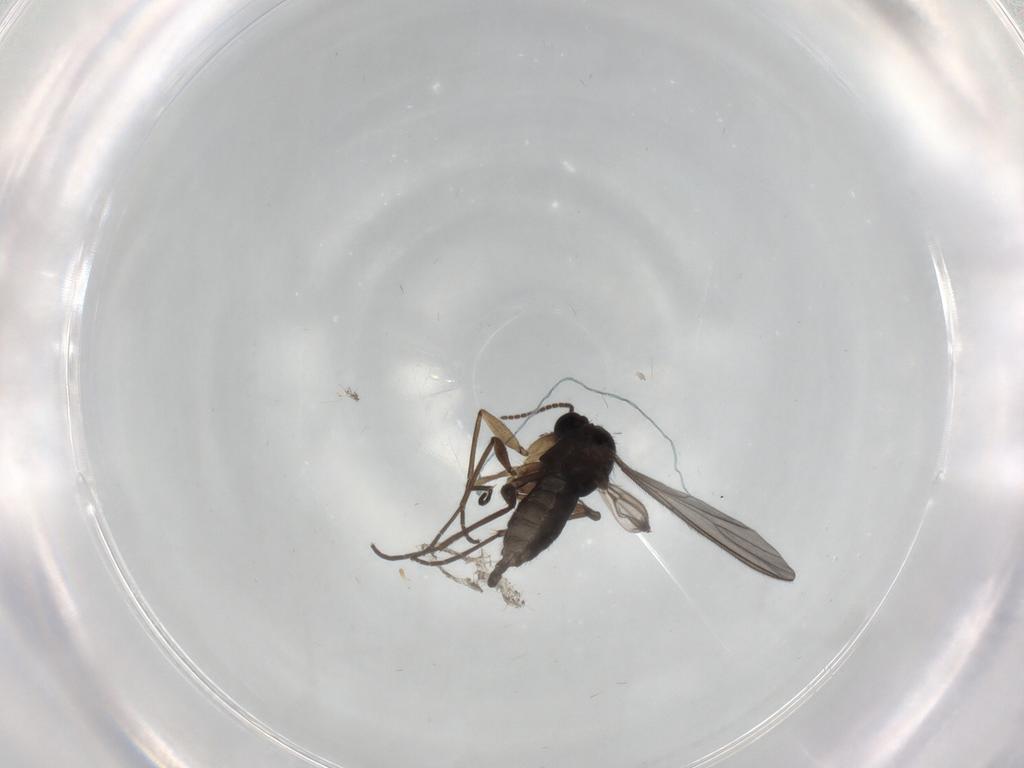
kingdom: Animalia
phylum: Arthropoda
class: Insecta
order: Diptera
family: Sciaridae
